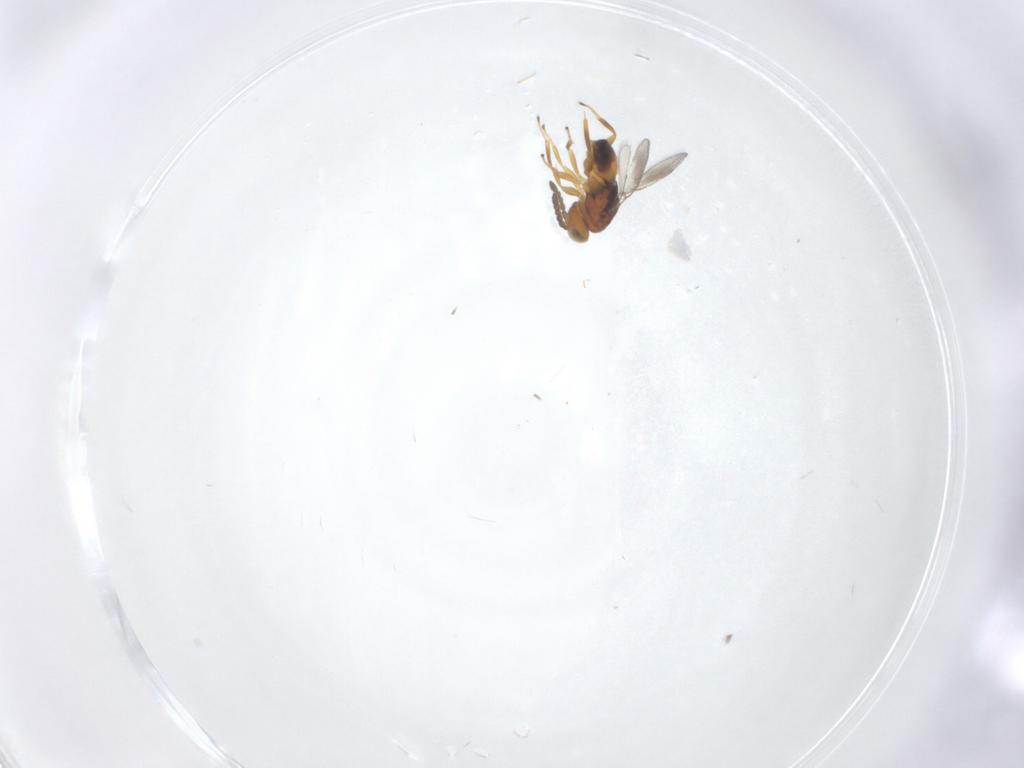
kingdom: Animalia
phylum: Arthropoda
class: Insecta
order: Hymenoptera
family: Moranilidae
